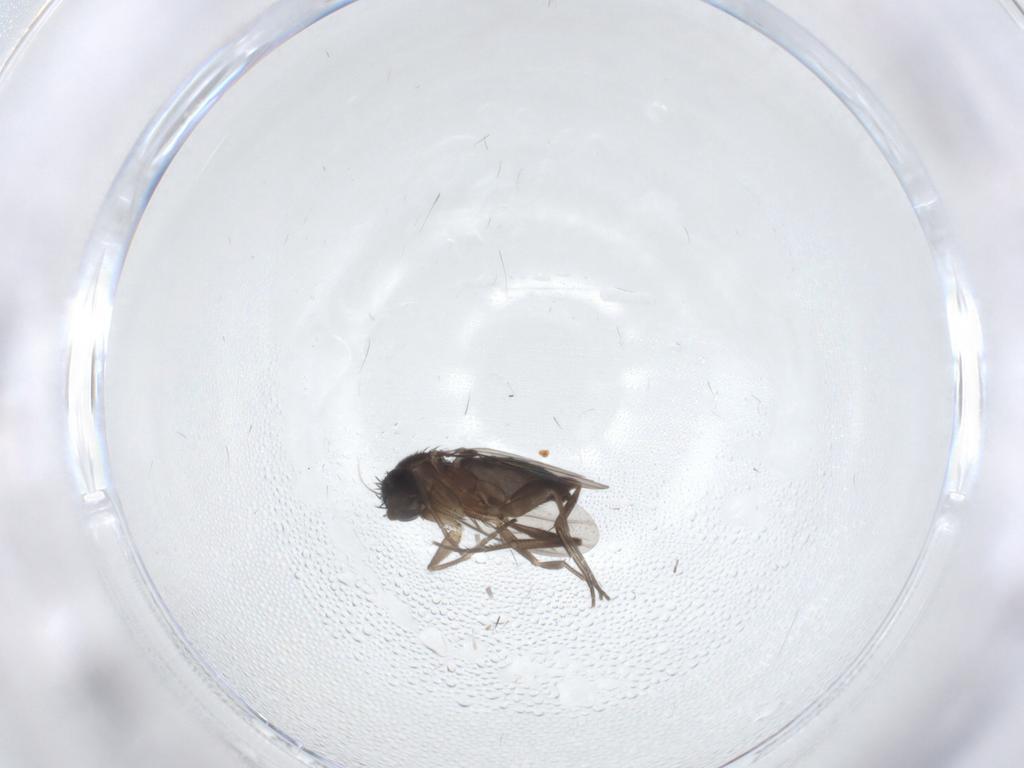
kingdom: Animalia
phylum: Arthropoda
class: Insecta
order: Diptera
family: Phoridae
